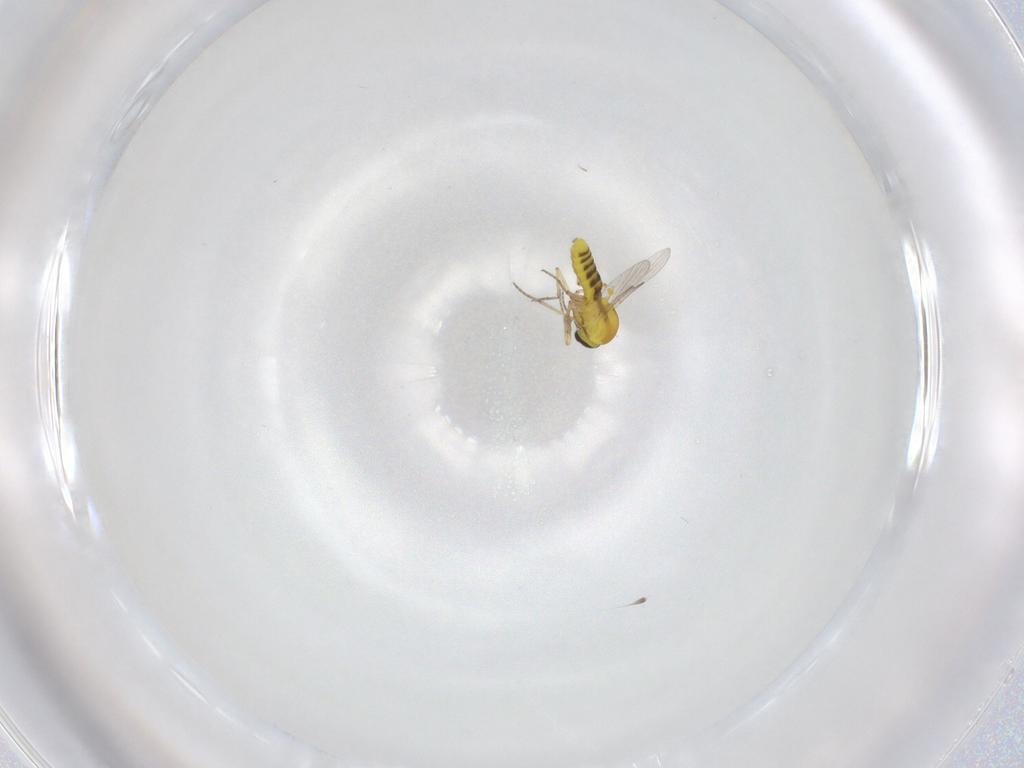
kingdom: Animalia
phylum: Arthropoda
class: Insecta
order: Diptera
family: Ceratopogonidae
